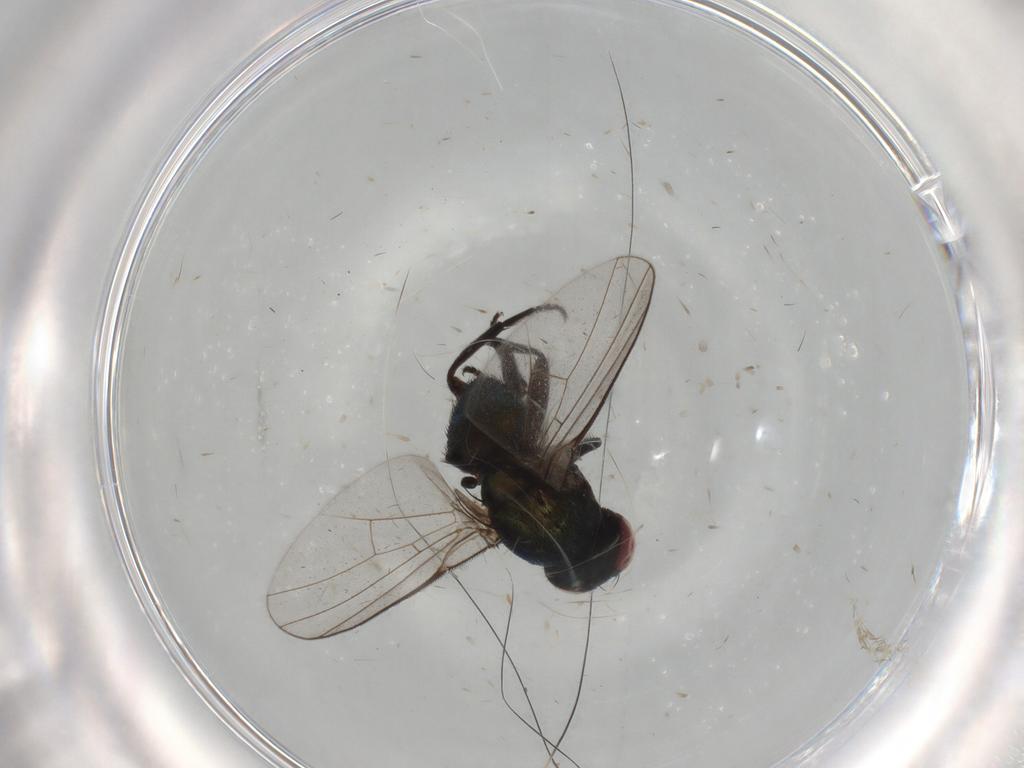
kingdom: Animalia
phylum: Arthropoda
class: Insecta
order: Diptera
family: Agromyzidae
